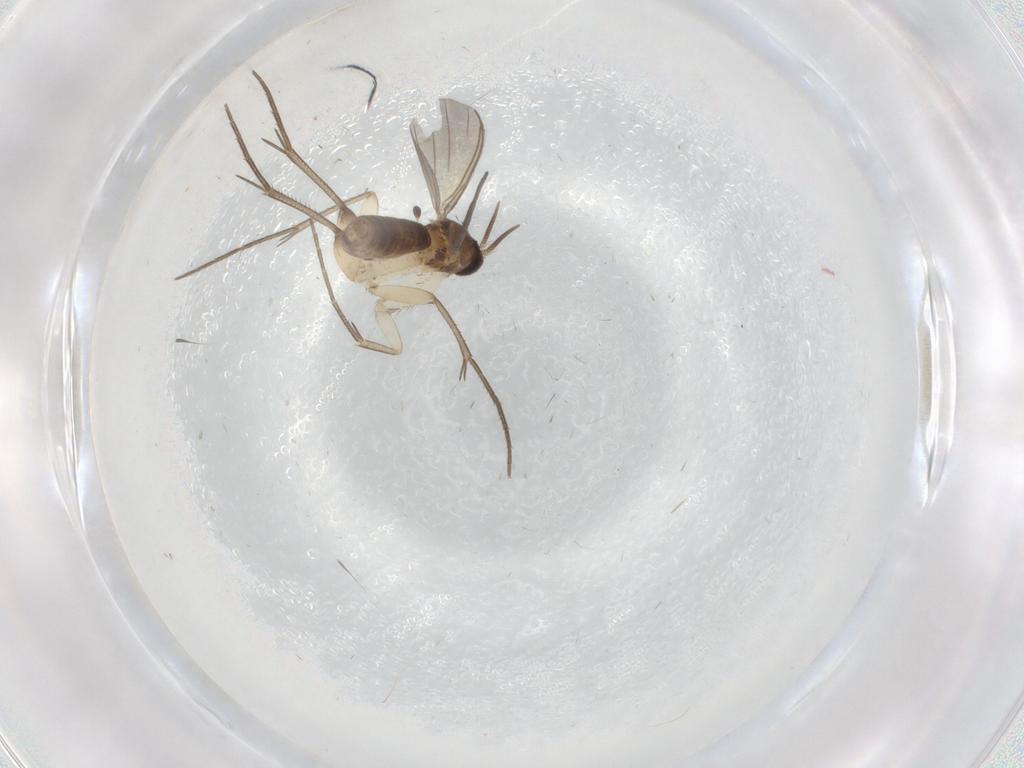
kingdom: Animalia
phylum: Arthropoda
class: Insecta
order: Diptera
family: Mycetophilidae
